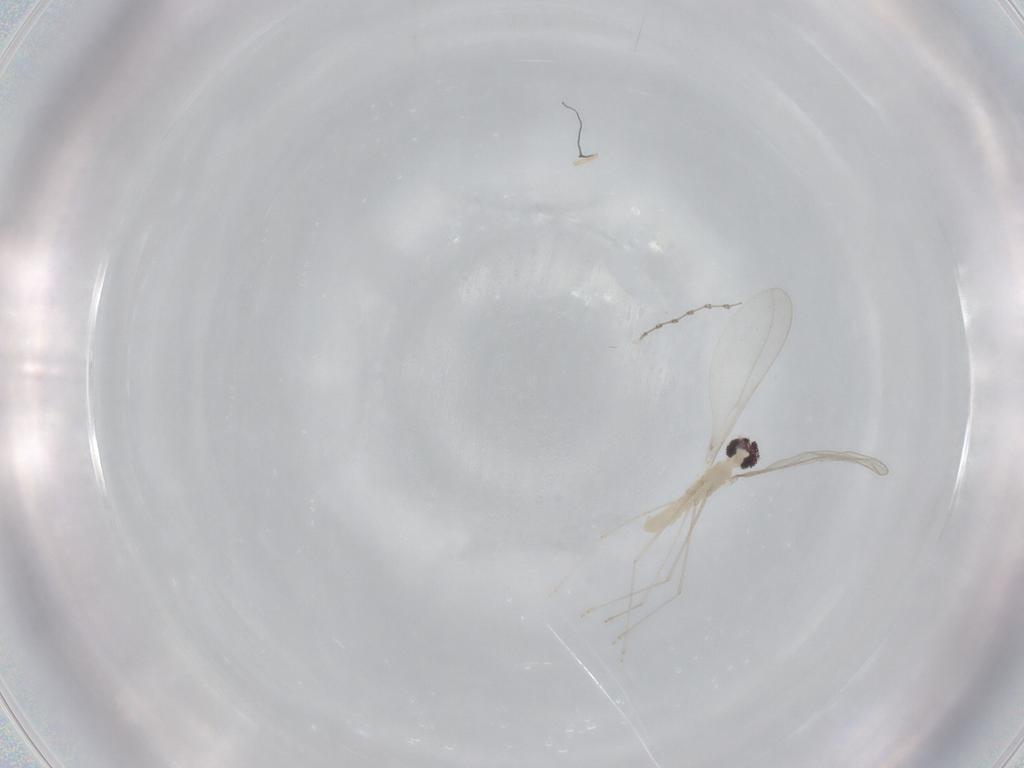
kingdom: Animalia
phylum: Arthropoda
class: Insecta
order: Diptera
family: Cecidomyiidae
